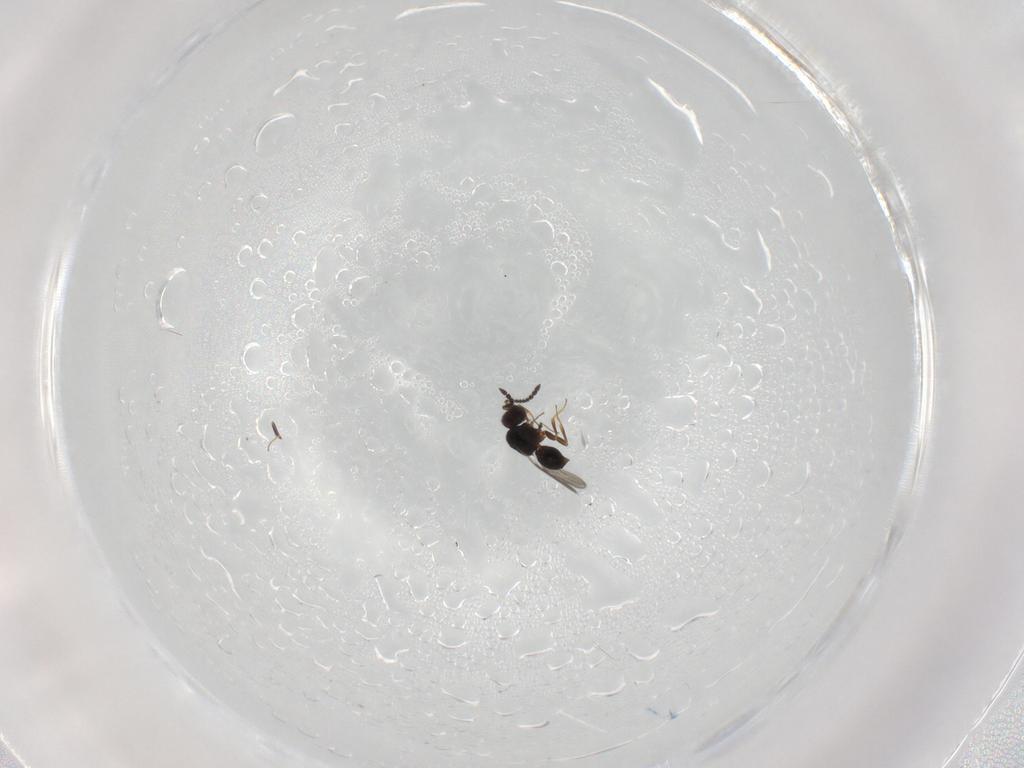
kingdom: Animalia
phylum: Arthropoda
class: Insecta
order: Hymenoptera
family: Ceraphronidae
